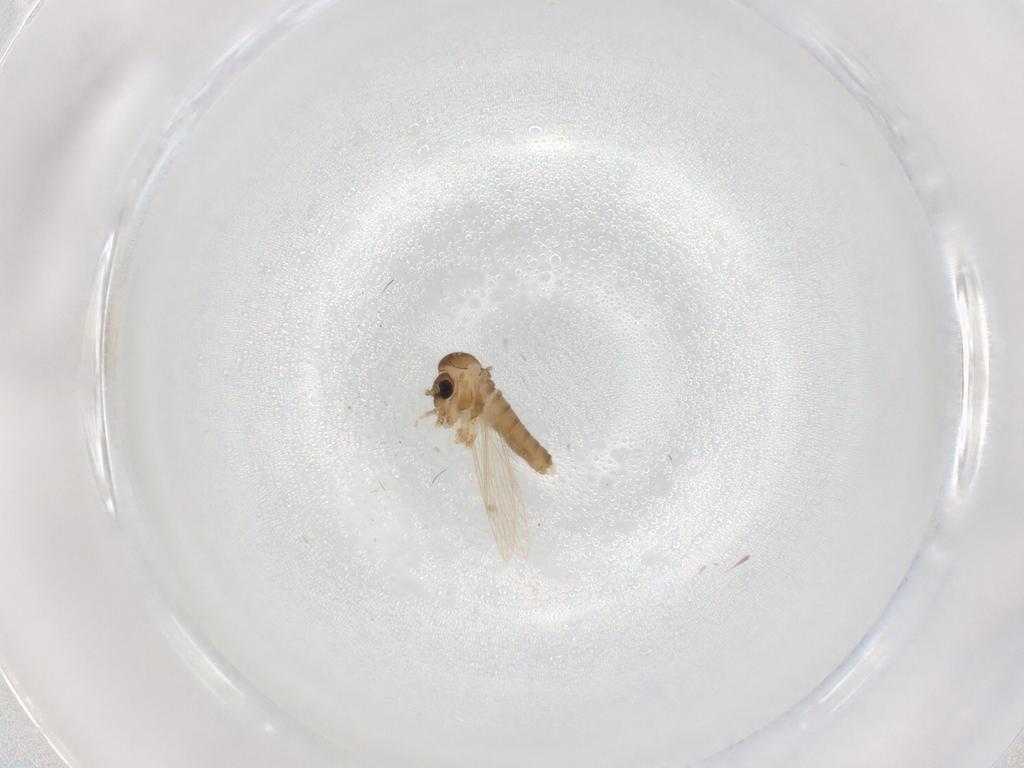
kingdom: Animalia
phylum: Arthropoda
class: Insecta
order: Diptera
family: Psychodidae
